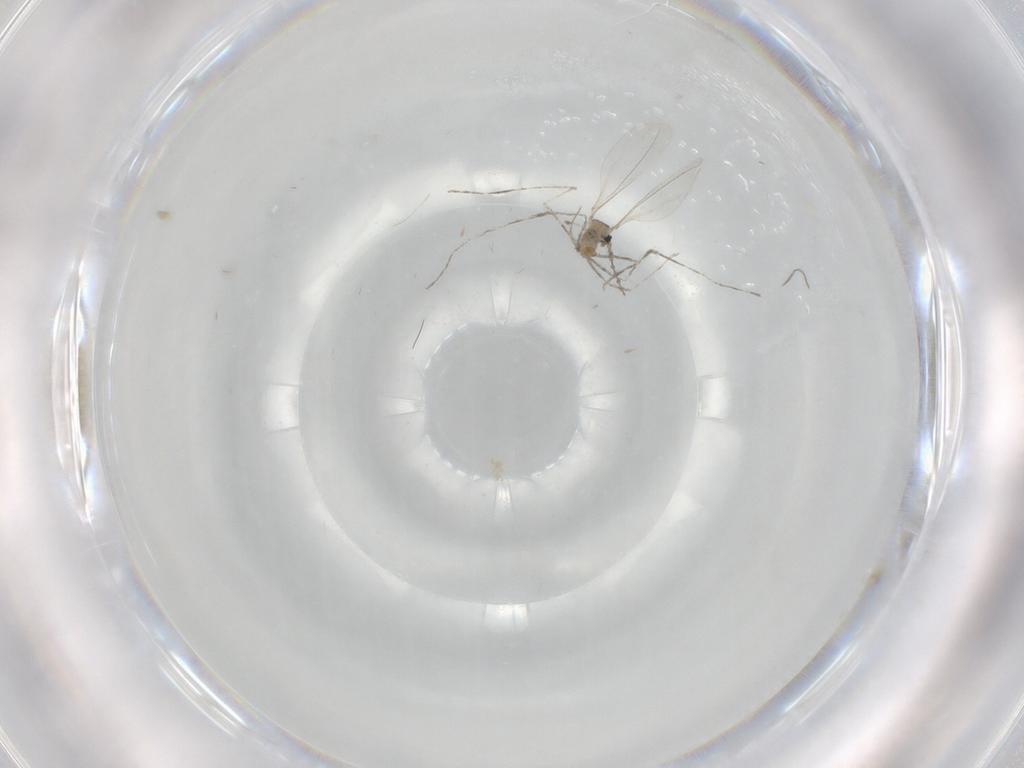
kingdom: Animalia
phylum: Arthropoda
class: Insecta
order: Diptera
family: Cecidomyiidae
